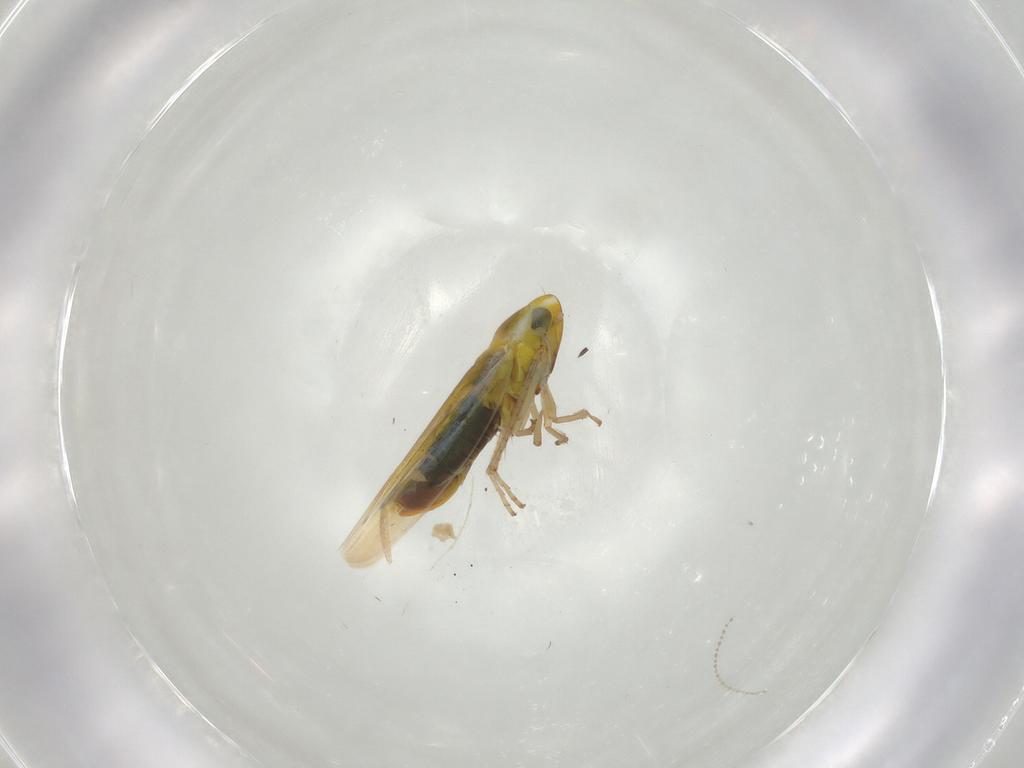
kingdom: Animalia
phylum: Arthropoda
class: Insecta
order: Hemiptera
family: Cicadellidae
